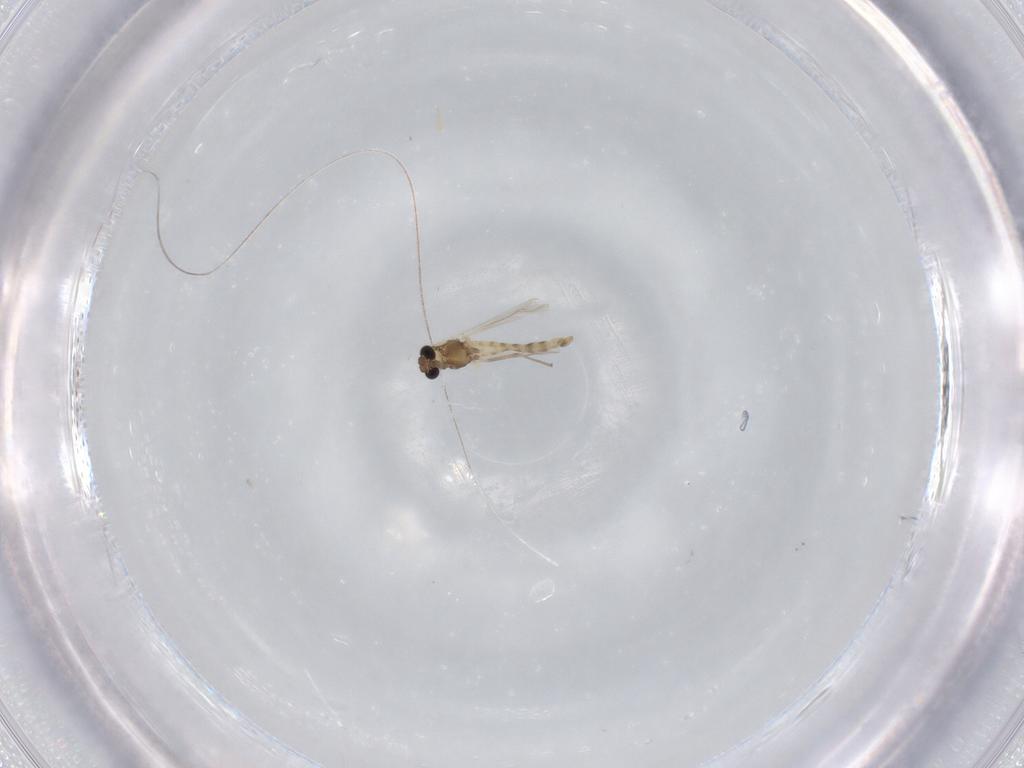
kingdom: Animalia
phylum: Arthropoda
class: Insecta
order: Diptera
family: Chironomidae
